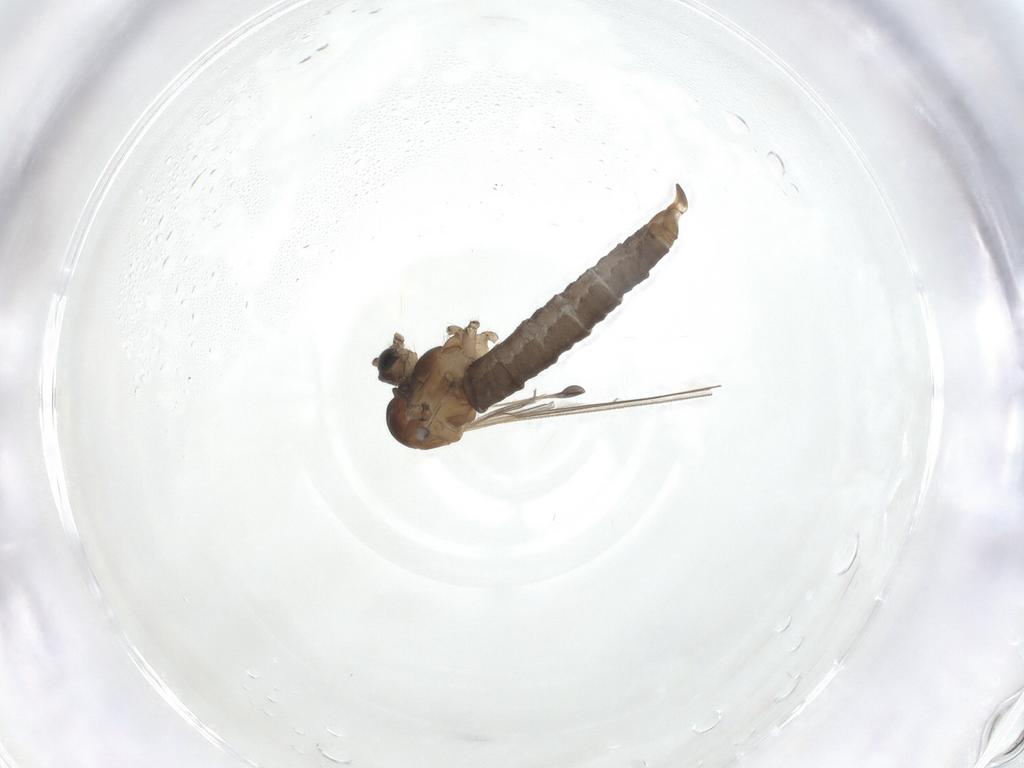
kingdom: Animalia
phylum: Arthropoda
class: Insecta
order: Diptera
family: Trichoceridae
